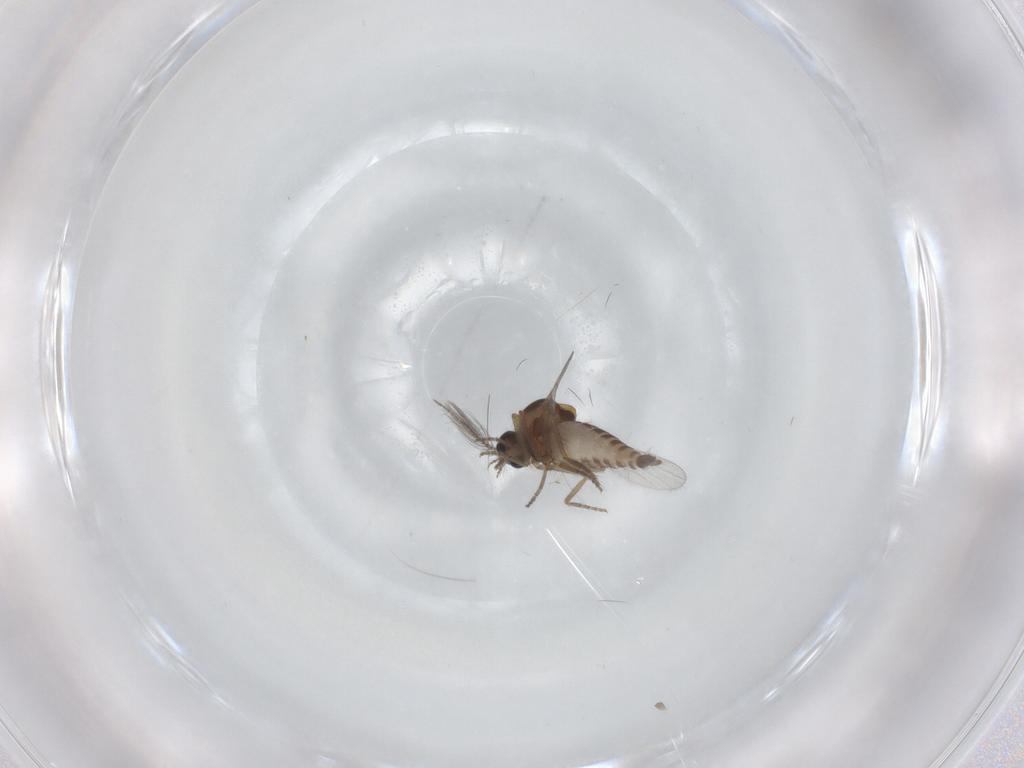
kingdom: Animalia
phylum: Arthropoda
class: Insecta
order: Diptera
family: Ceratopogonidae
